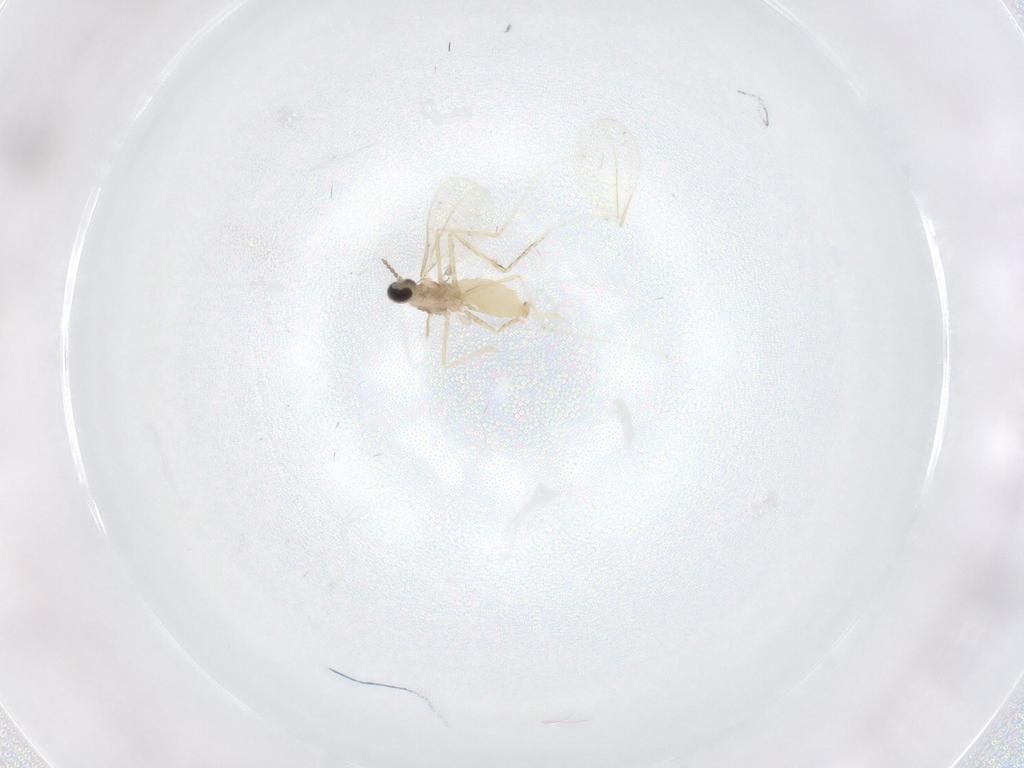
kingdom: Animalia
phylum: Arthropoda
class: Insecta
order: Diptera
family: Cecidomyiidae
